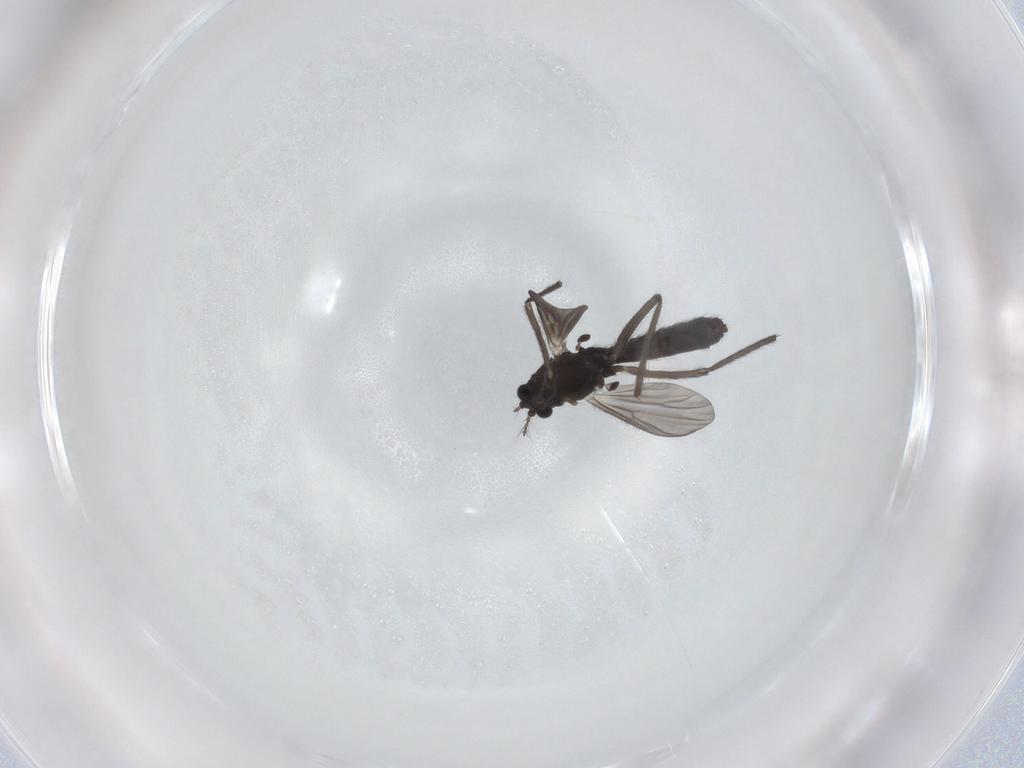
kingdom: Animalia
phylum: Arthropoda
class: Insecta
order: Diptera
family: Chironomidae
